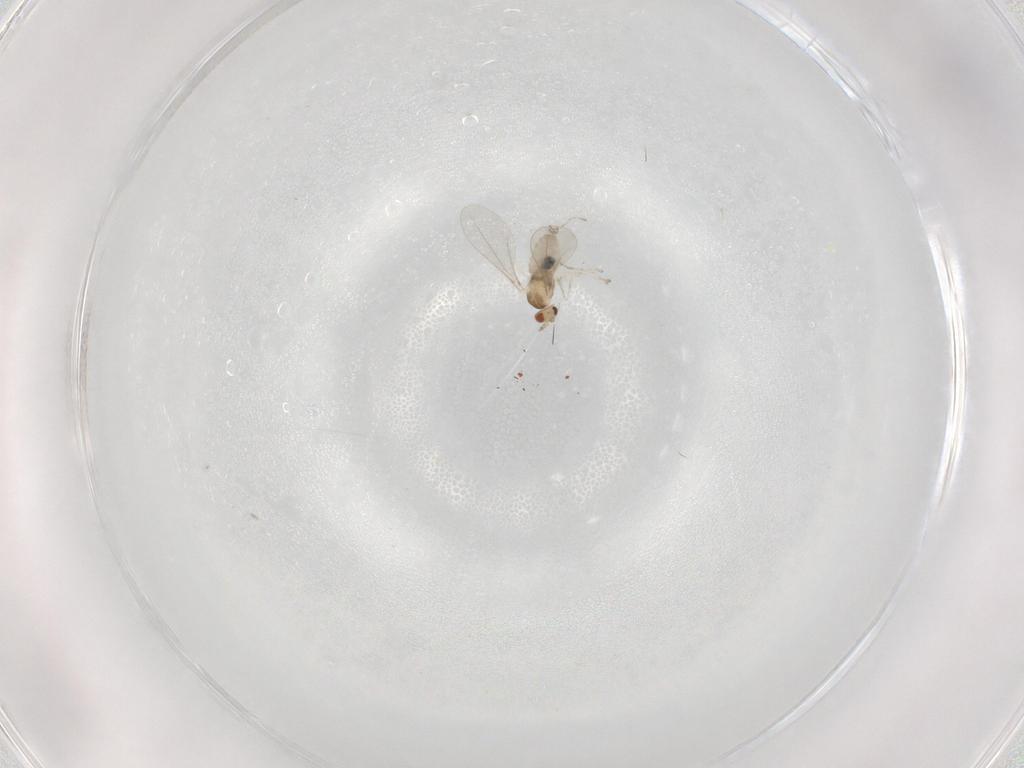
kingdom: Animalia
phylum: Arthropoda
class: Insecta
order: Diptera
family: Cecidomyiidae
